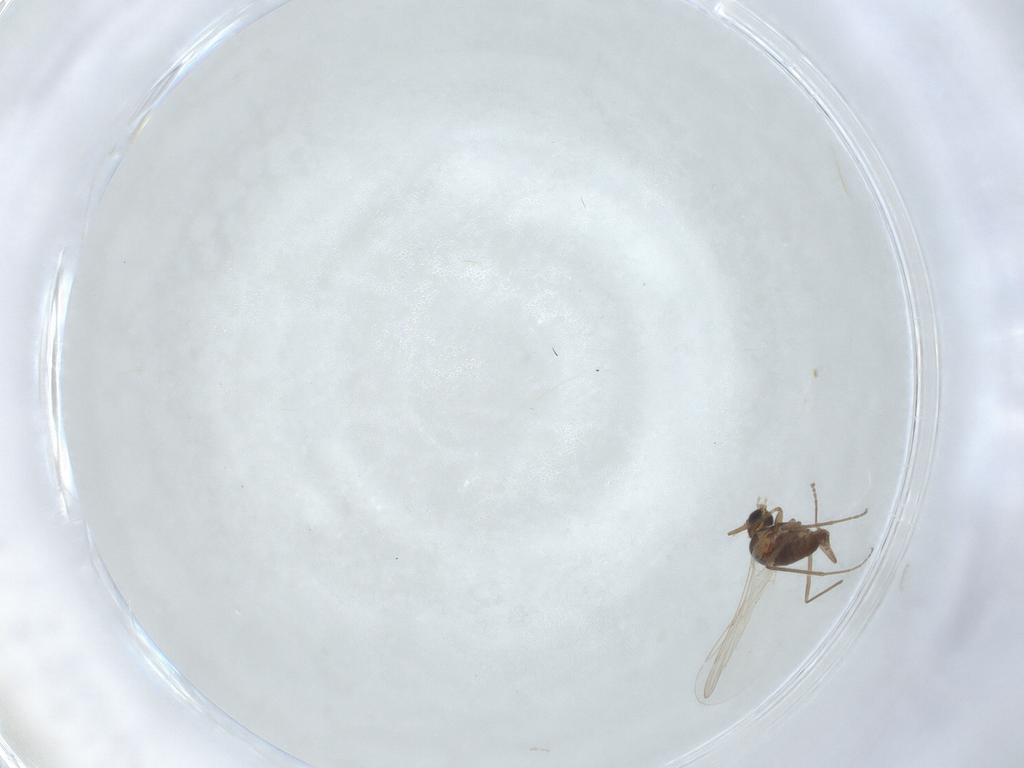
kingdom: Animalia
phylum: Arthropoda
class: Insecta
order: Diptera
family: Cecidomyiidae
